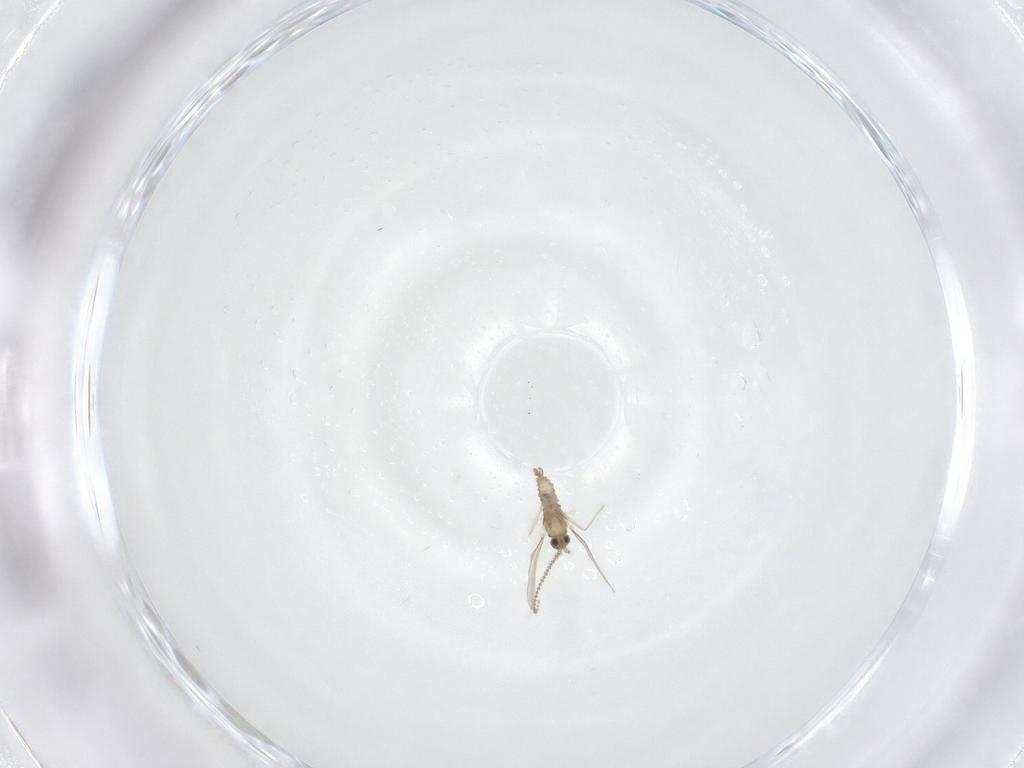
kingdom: Animalia
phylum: Arthropoda
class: Insecta
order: Diptera
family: Cecidomyiidae
